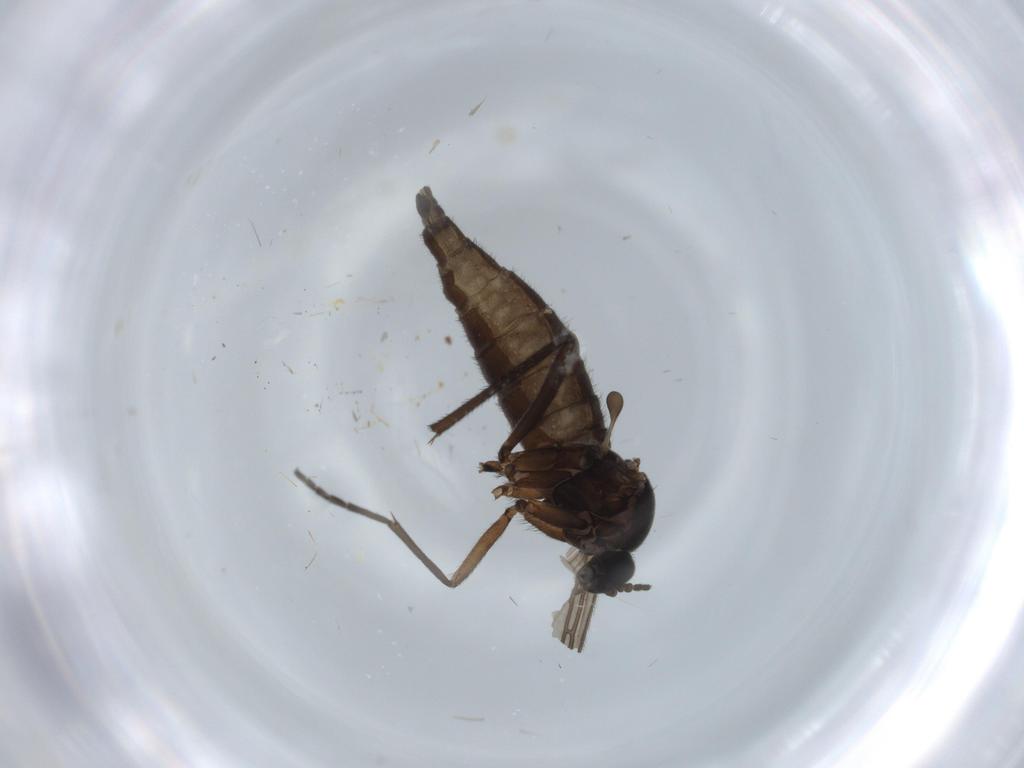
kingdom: Animalia
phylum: Arthropoda
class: Insecta
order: Diptera
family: Sciaridae
